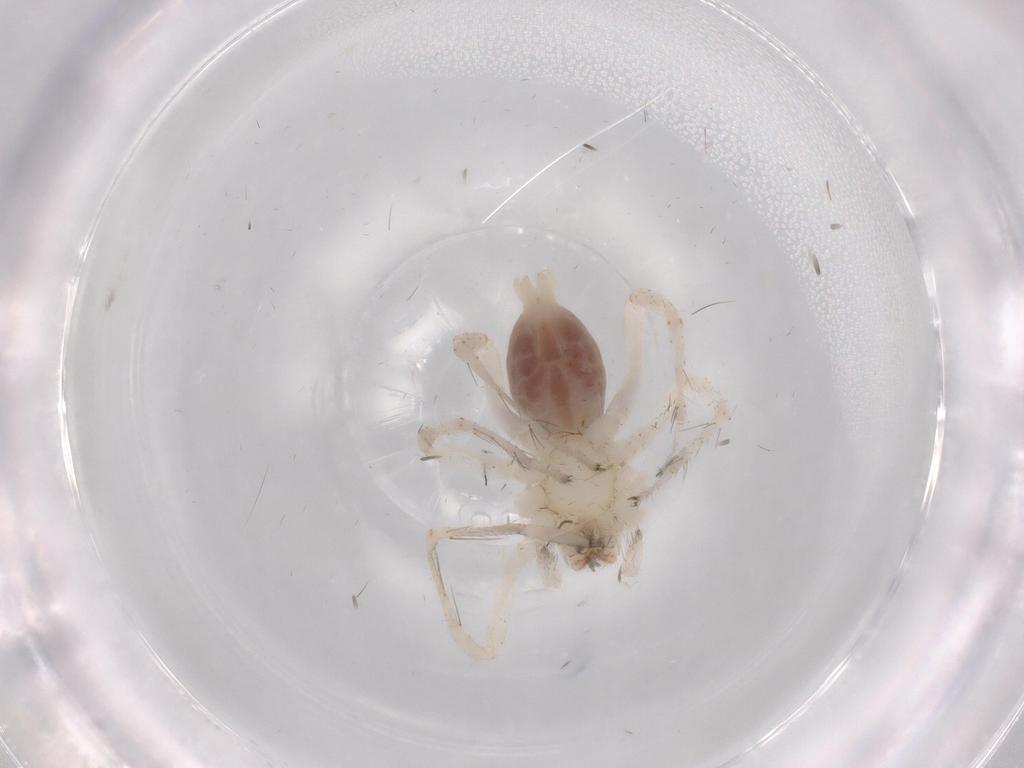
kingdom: Animalia
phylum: Arthropoda
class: Arachnida
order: Araneae
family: Anyphaenidae
